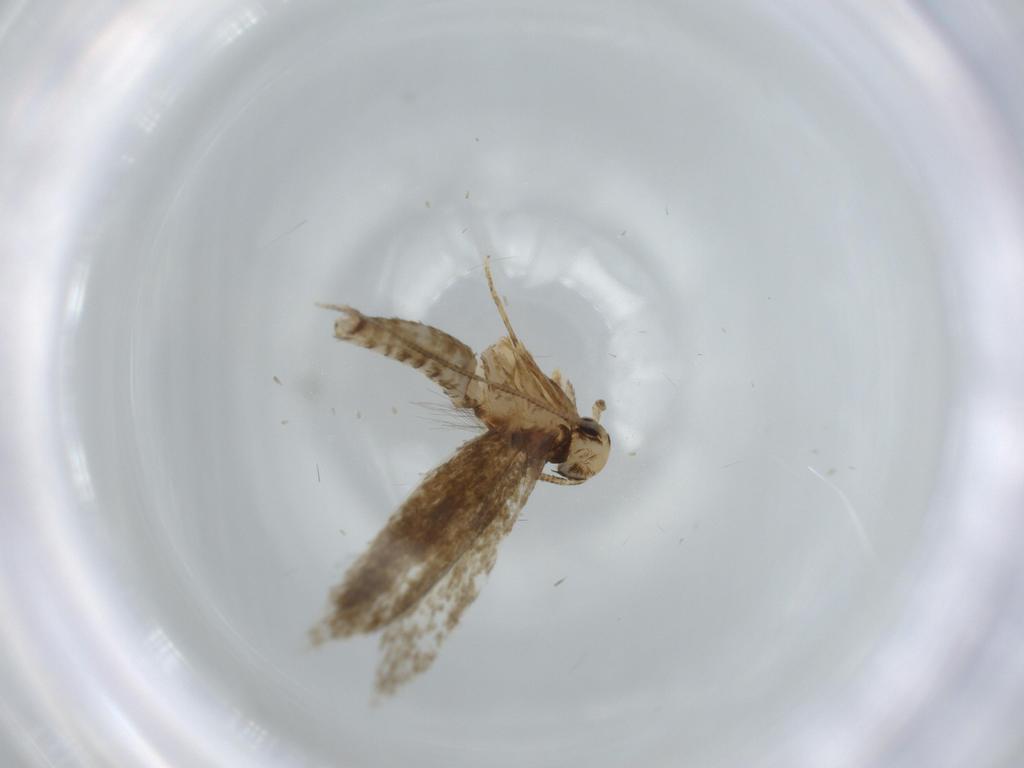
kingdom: Animalia
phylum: Arthropoda
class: Insecta
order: Lepidoptera
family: Tineidae
